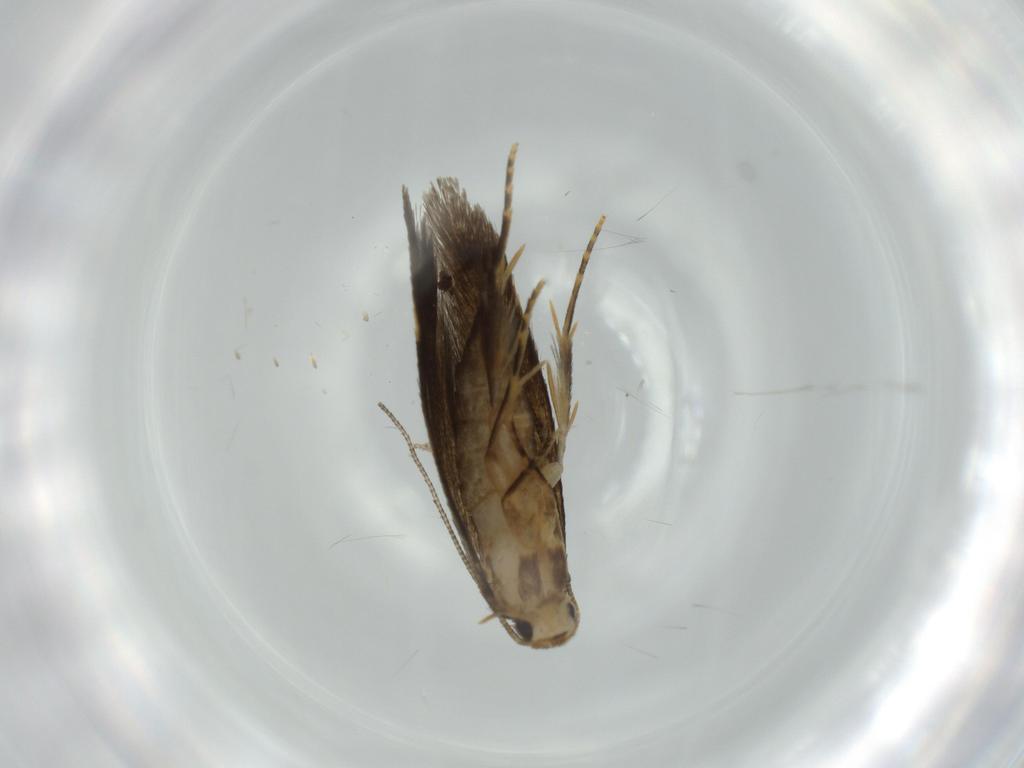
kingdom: Animalia
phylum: Arthropoda
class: Insecta
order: Lepidoptera
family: Tineidae
